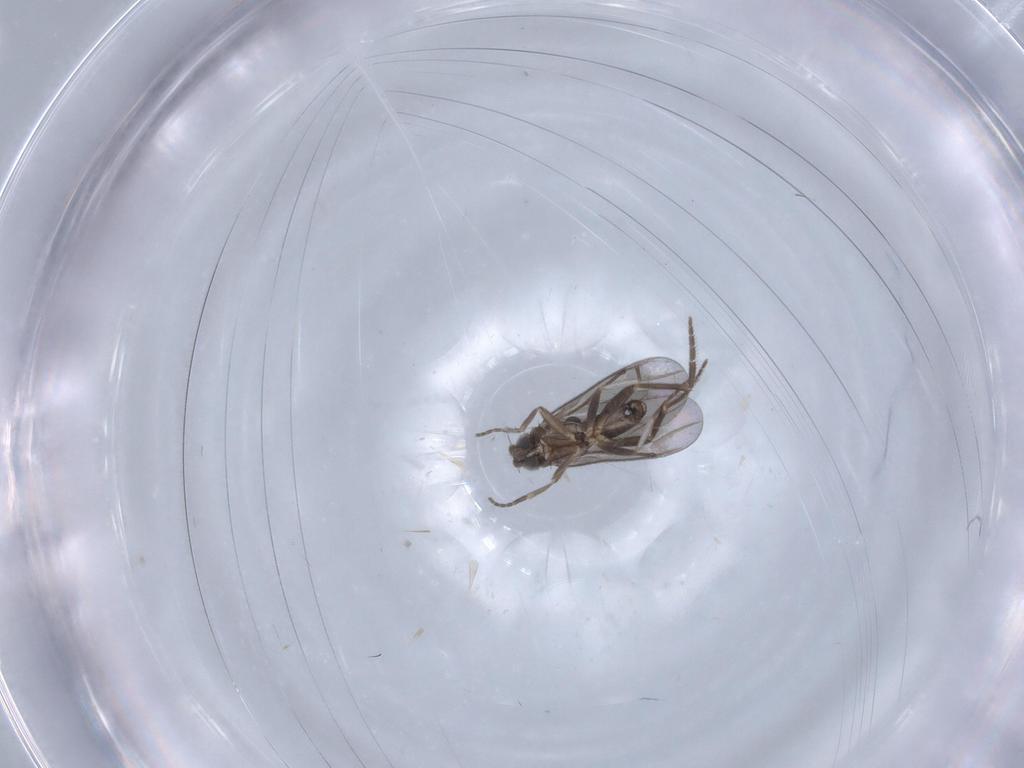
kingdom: Animalia
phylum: Arthropoda
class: Insecta
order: Diptera
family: Phoridae
